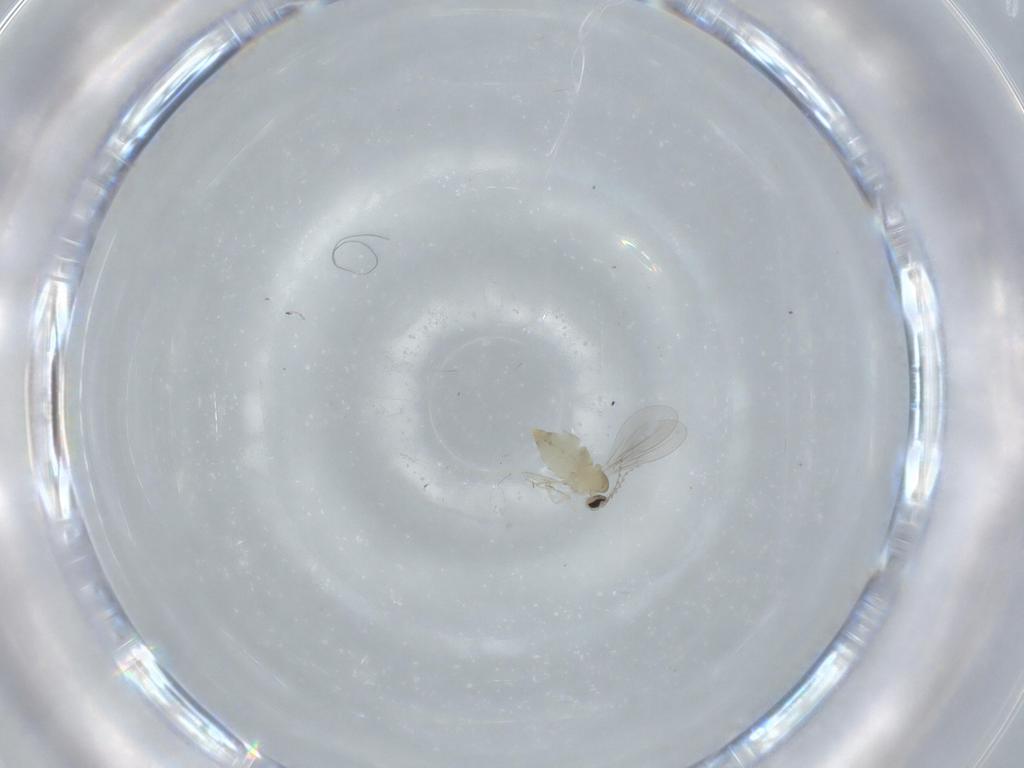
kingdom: Animalia
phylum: Arthropoda
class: Insecta
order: Diptera
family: Cecidomyiidae
